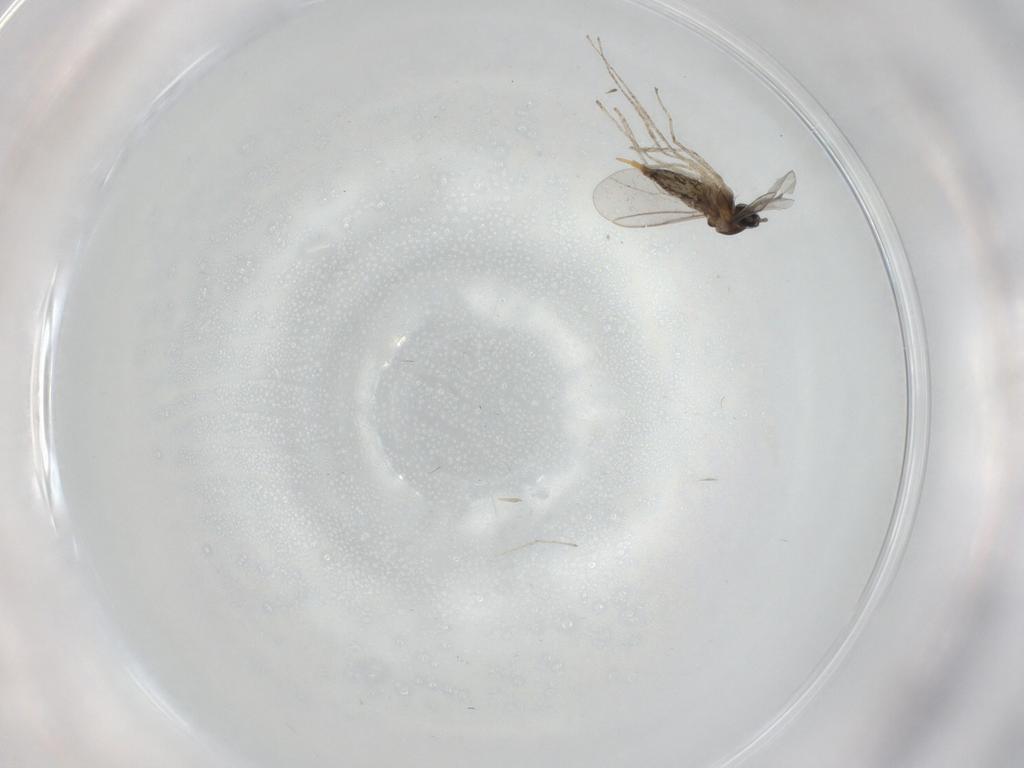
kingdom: Animalia
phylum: Arthropoda
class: Insecta
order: Diptera
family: Cecidomyiidae
